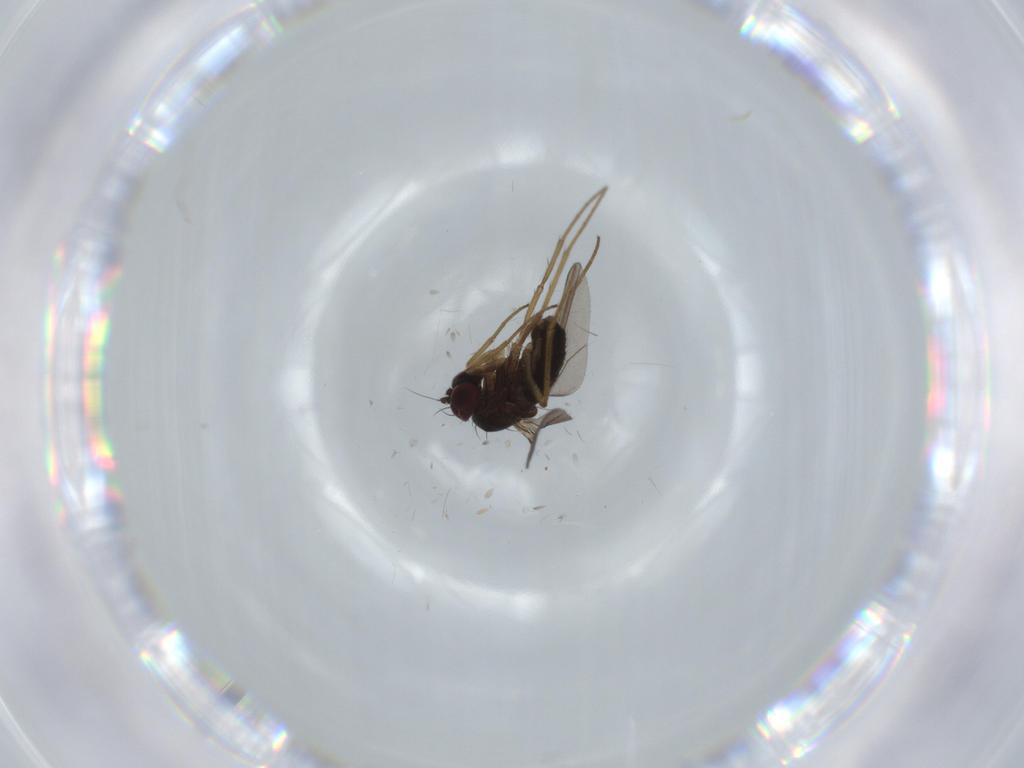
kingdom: Animalia
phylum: Arthropoda
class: Insecta
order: Diptera
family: Dolichopodidae
